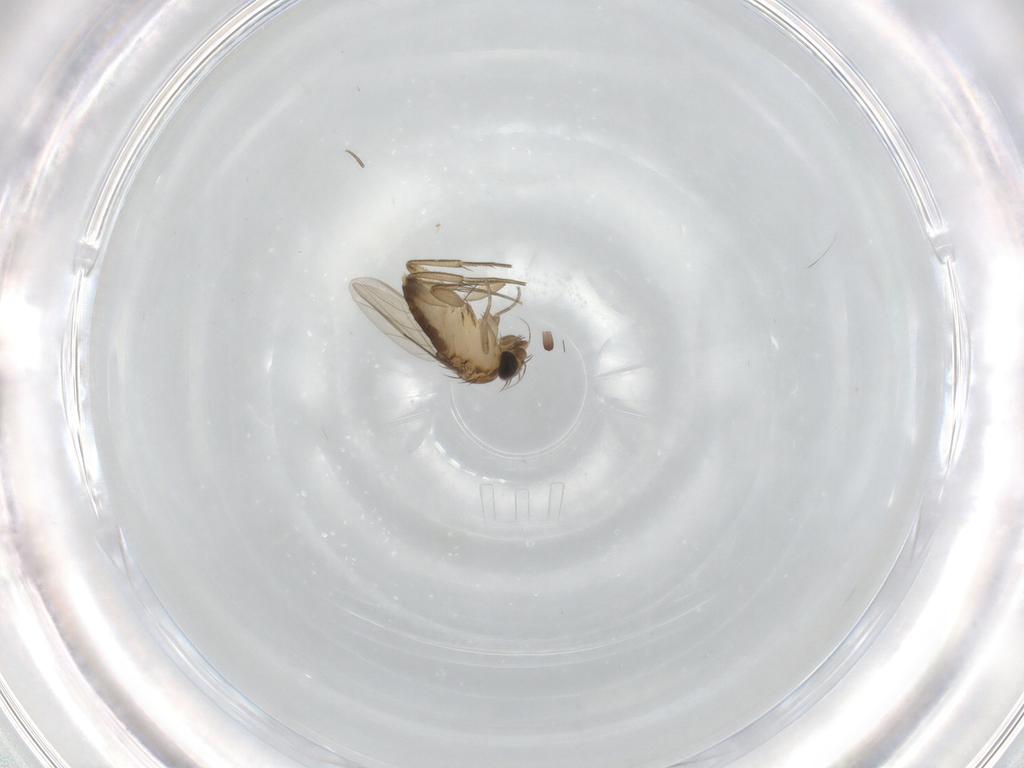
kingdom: Animalia
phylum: Arthropoda
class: Insecta
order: Diptera
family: Phoridae
